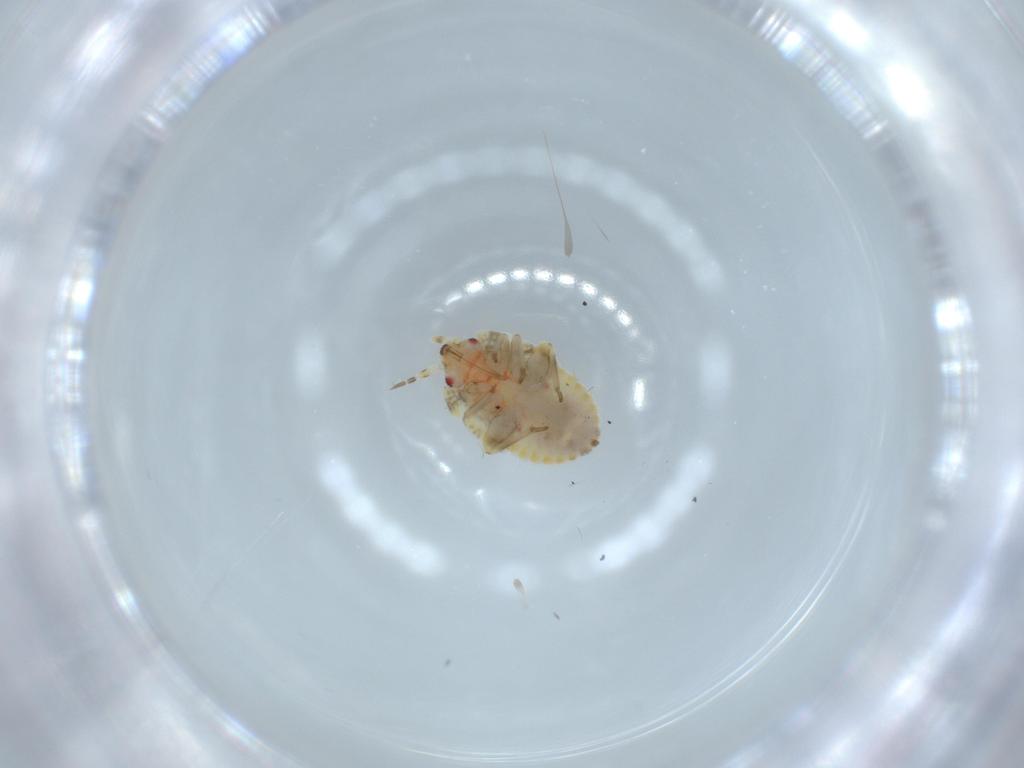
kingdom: Animalia
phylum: Arthropoda
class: Insecta
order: Hemiptera
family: Miridae
